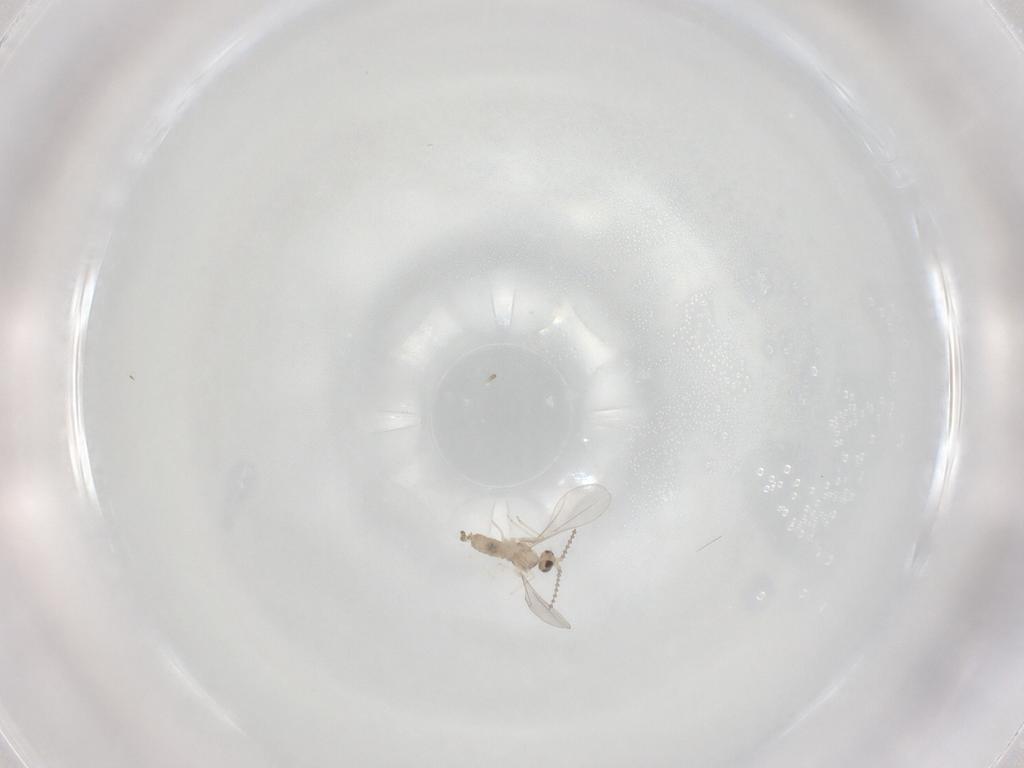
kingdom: Animalia
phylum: Arthropoda
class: Insecta
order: Diptera
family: Cecidomyiidae
